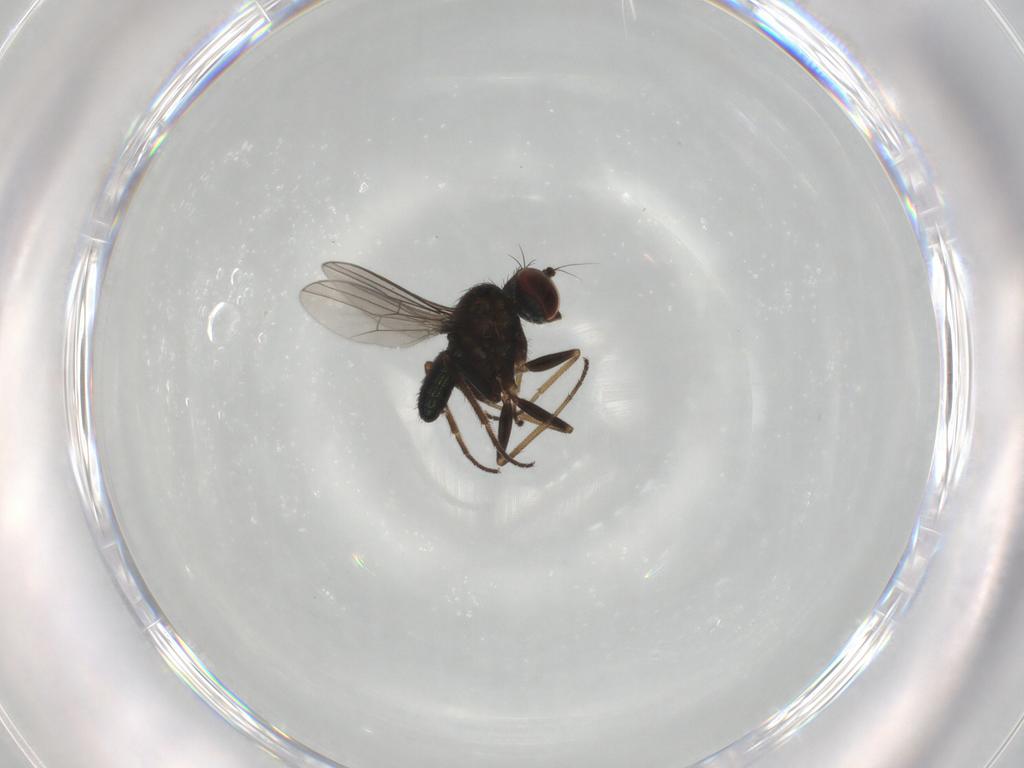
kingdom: Animalia
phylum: Arthropoda
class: Insecta
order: Diptera
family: Dolichopodidae
